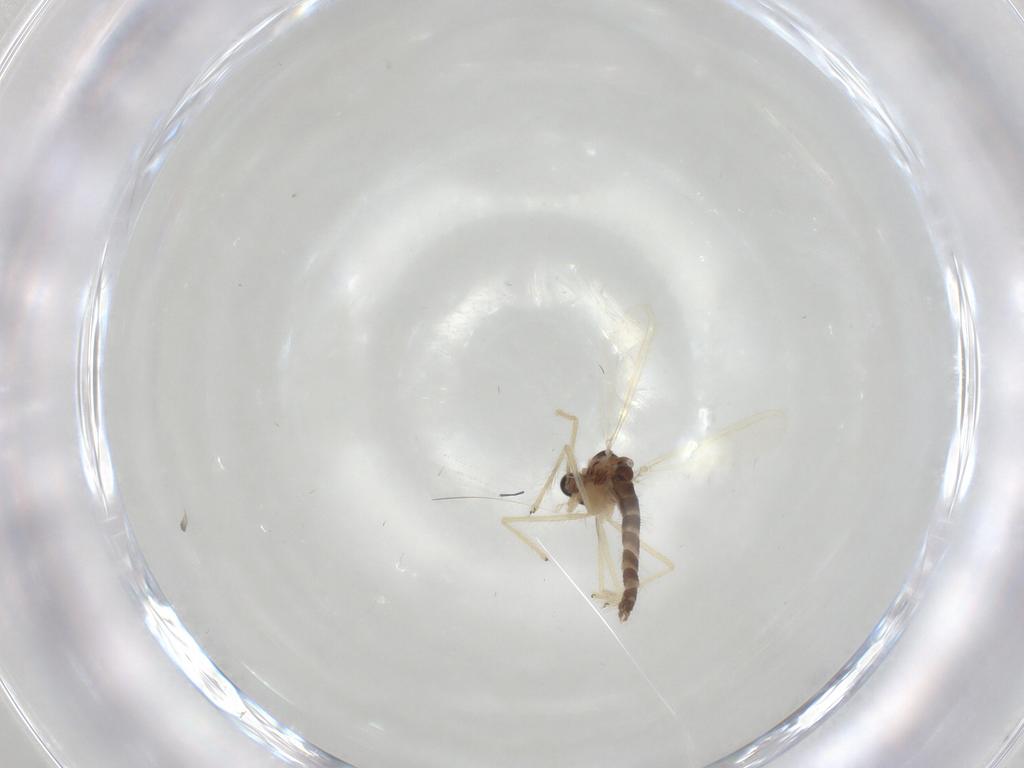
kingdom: Animalia
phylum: Arthropoda
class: Insecta
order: Diptera
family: Chironomidae
